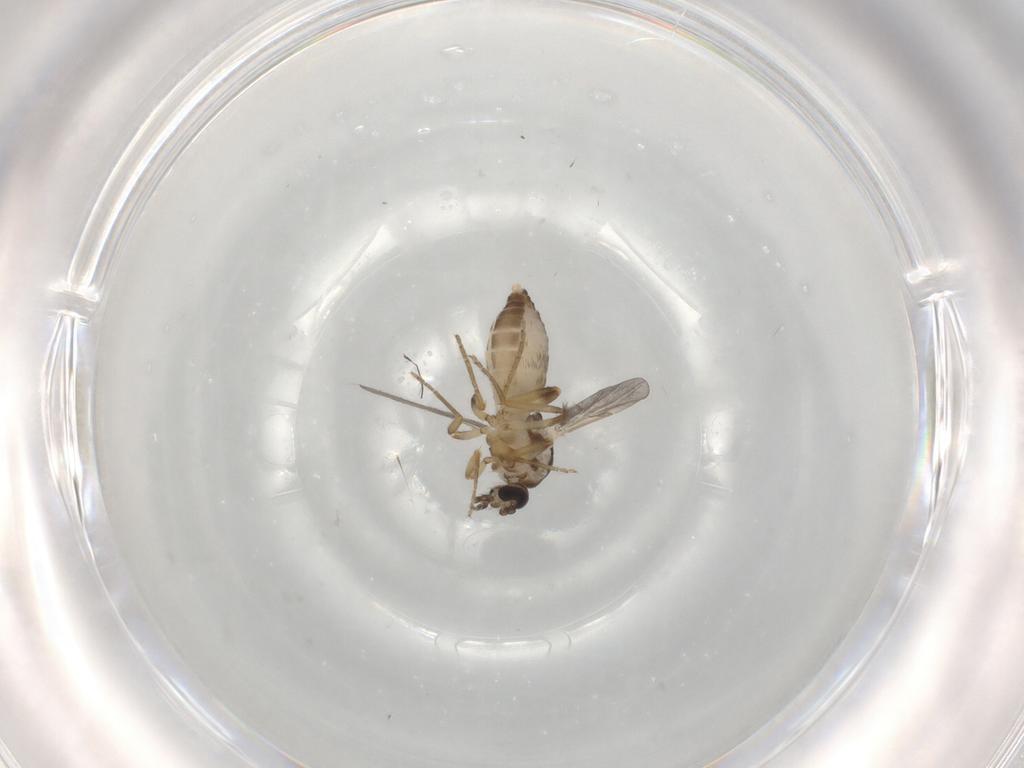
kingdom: Animalia
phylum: Arthropoda
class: Insecta
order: Diptera
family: Ceratopogonidae
